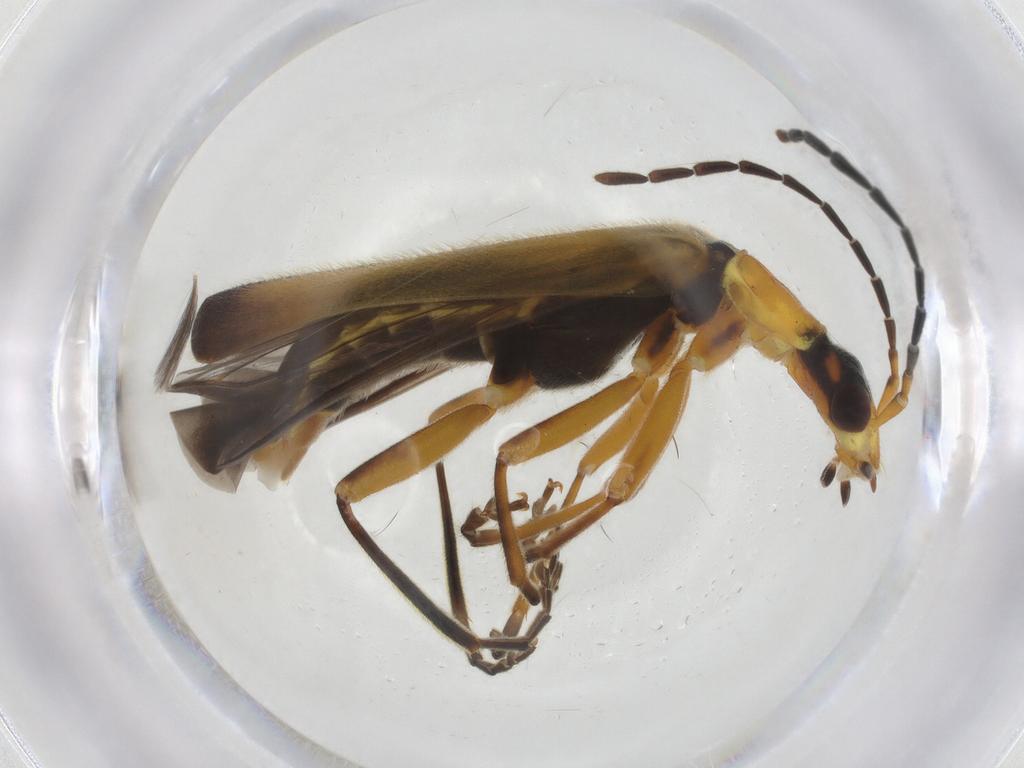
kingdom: Animalia
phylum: Arthropoda
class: Insecta
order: Coleoptera
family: Cantharidae
